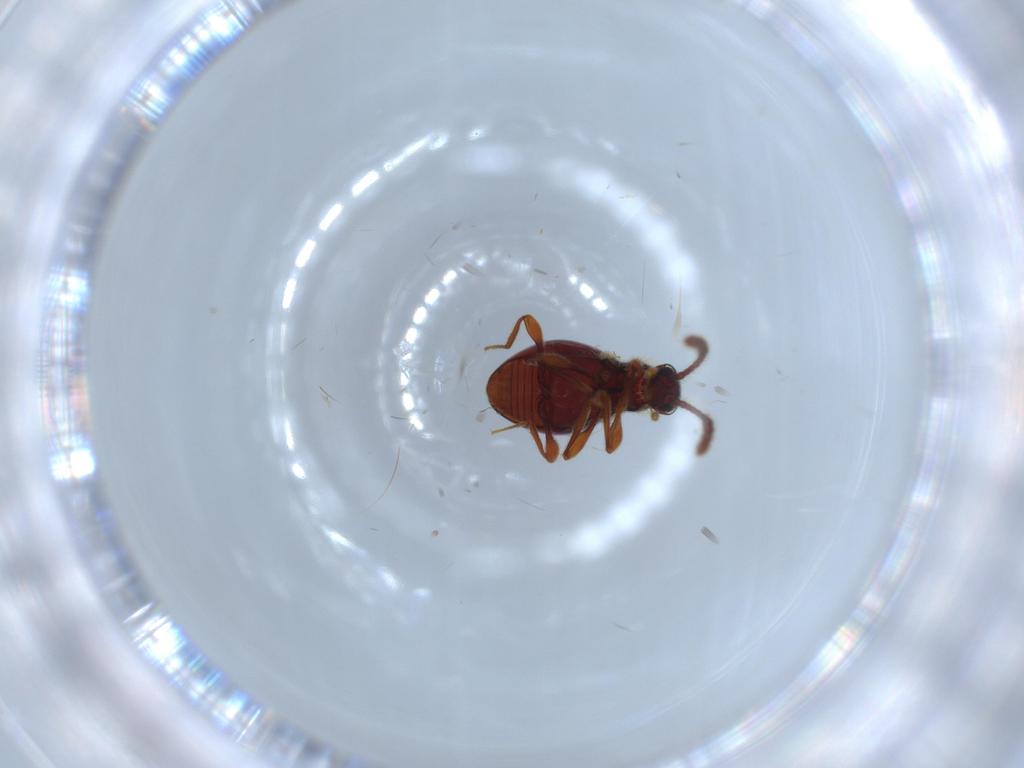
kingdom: Animalia
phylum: Arthropoda
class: Insecta
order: Coleoptera
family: Staphylinidae
